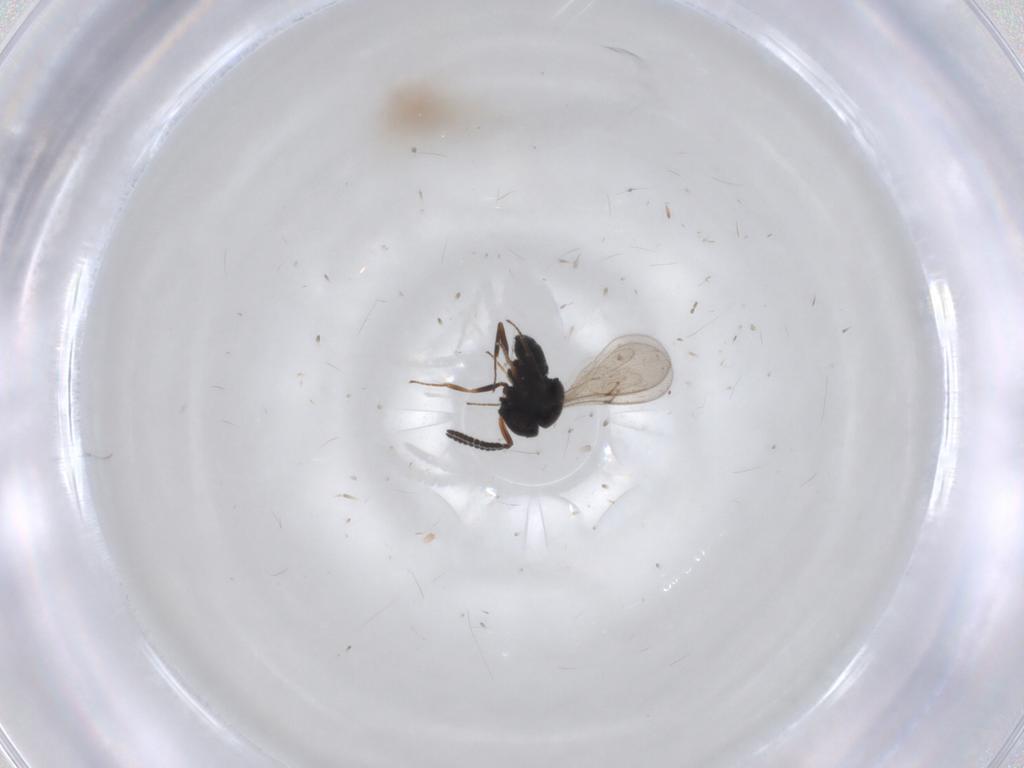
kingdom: Animalia
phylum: Arthropoda
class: Insecta
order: Hymenoptera
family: Scelionidae
